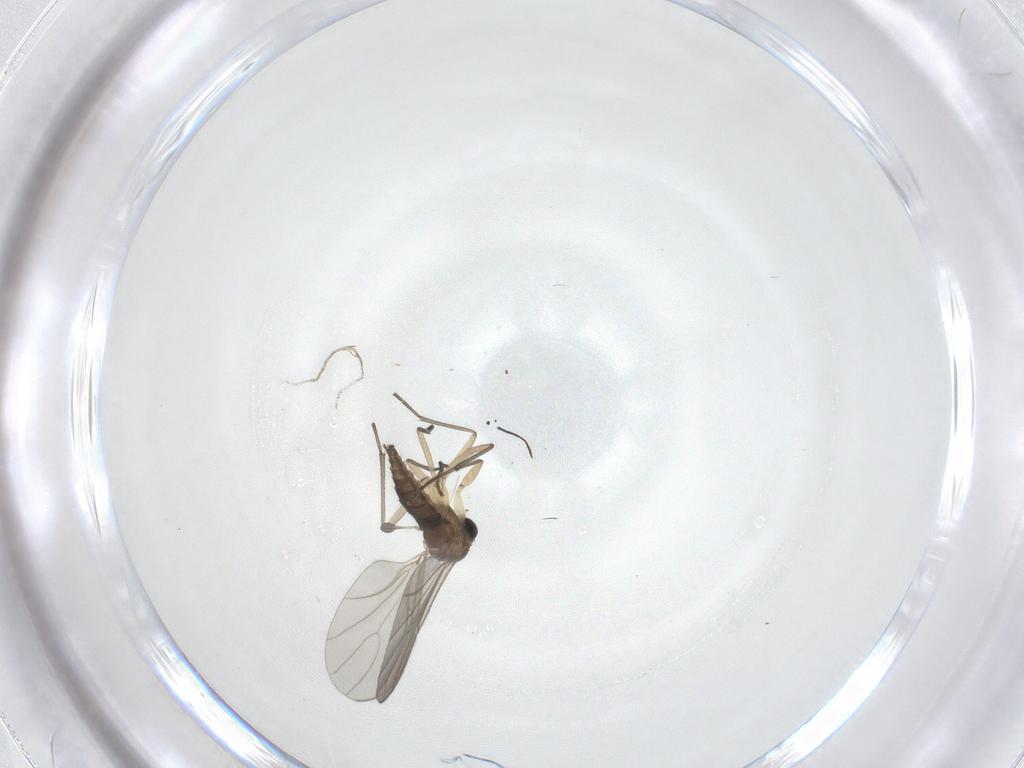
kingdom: Animalia
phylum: Arthropoda
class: Insecta
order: Diptera
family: Sciaridae
